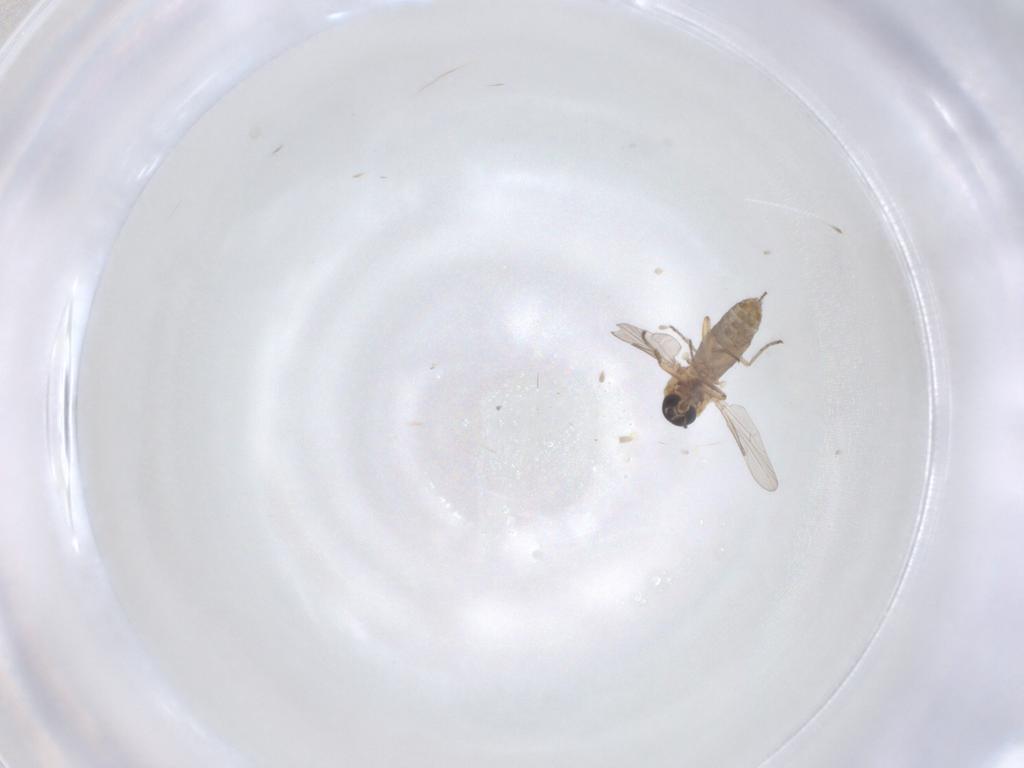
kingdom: Animalia
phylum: Arthropoda
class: Insecta
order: Diptera
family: Ceratopogonidae
